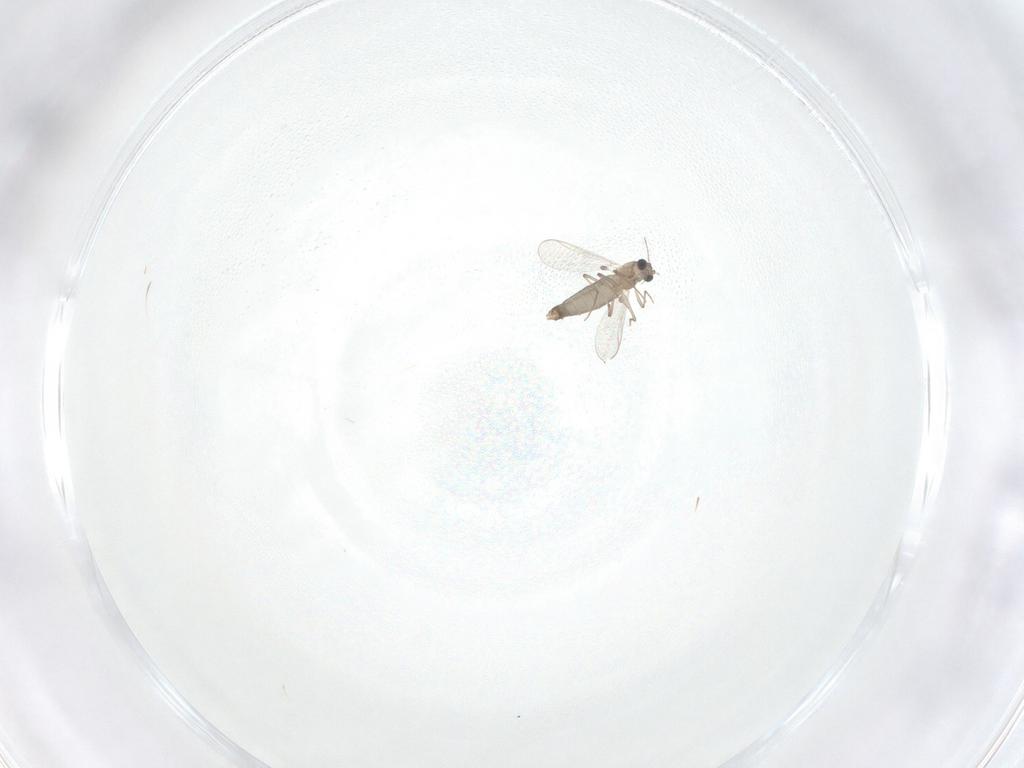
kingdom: Animalia
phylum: Arthropoda
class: Insecta
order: Diptera
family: Chironomidae
